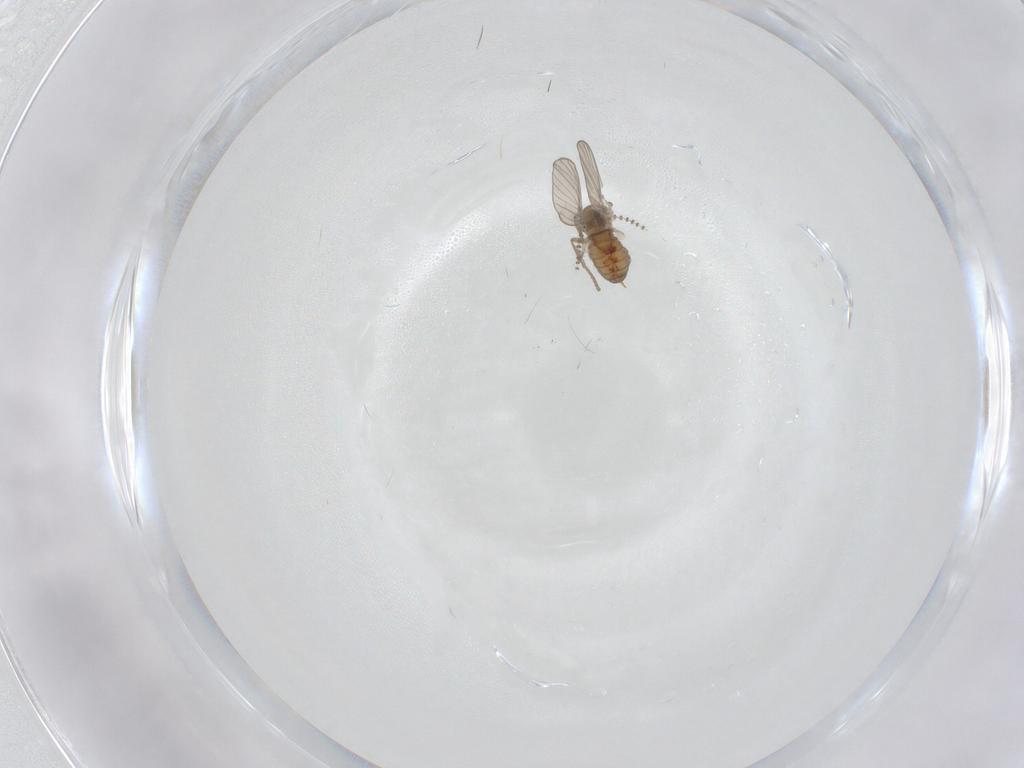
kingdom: Animalia
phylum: Arthropoda
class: Insecta
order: Diptera
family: Psychodidae
